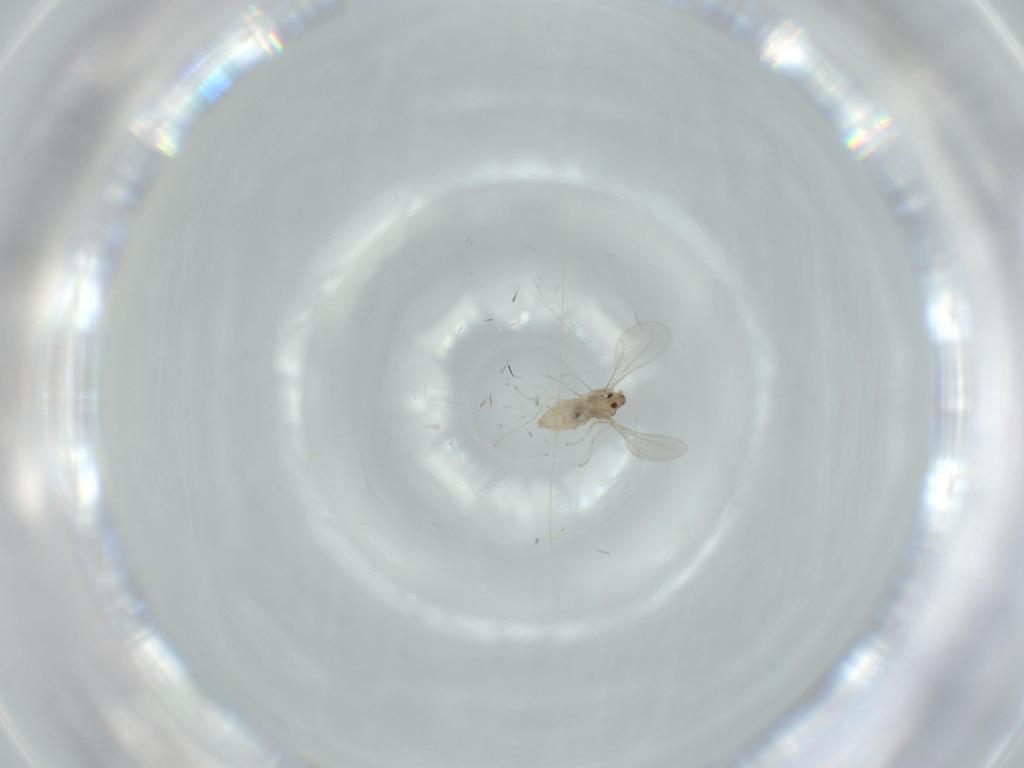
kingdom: Animalia
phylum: Arthropoda
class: Insecta
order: Diptera
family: Cecidomyiidae
